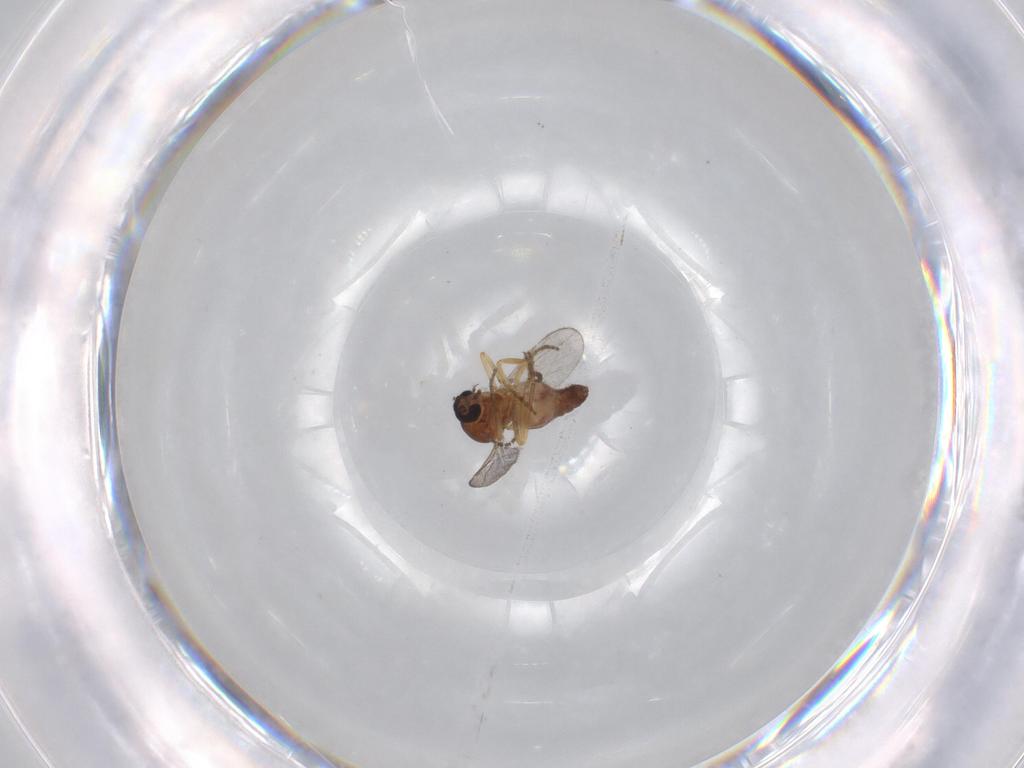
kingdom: Animalia
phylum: Arthropoda
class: Insecta
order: Diptera
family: Ceratopogonidae
